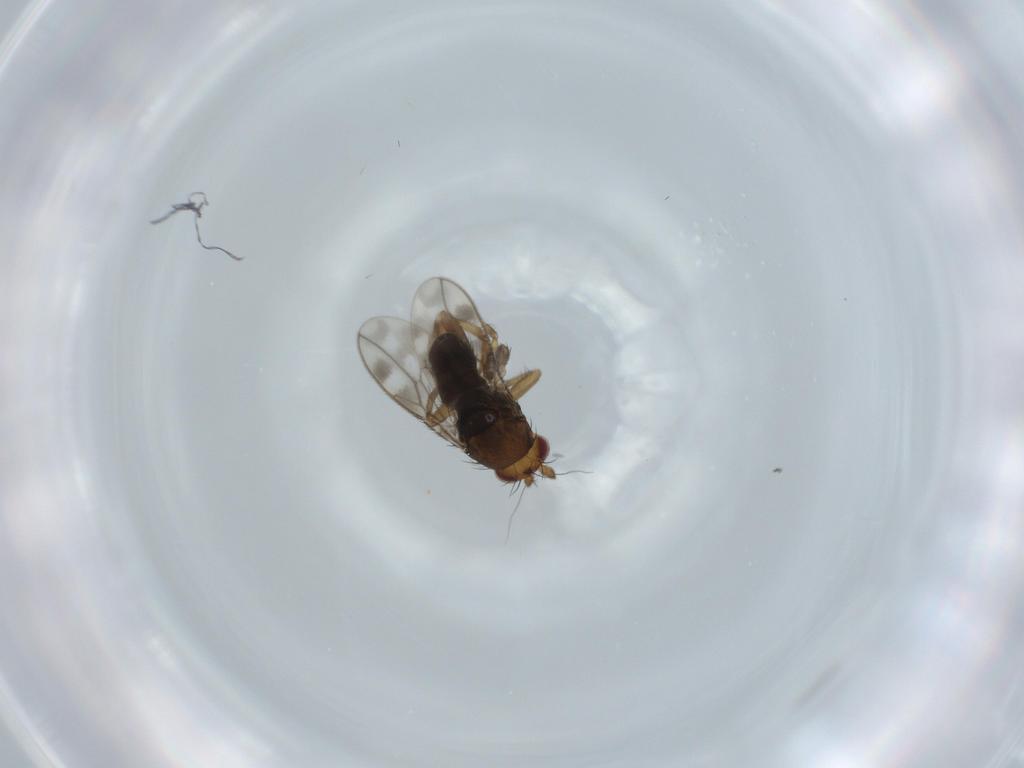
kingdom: Animalia
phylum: Arthropoda
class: Insecta
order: Diptera
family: Sphaeroceridae
